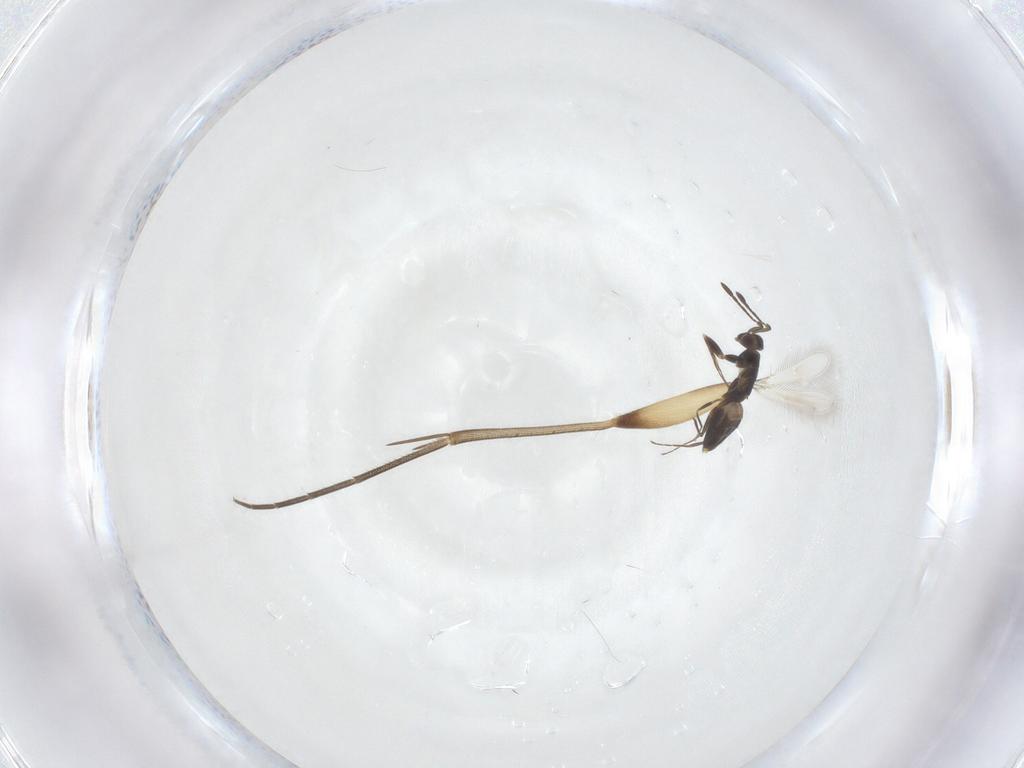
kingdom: Animalia
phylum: Arthropoda
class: Insecta
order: Diptera
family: Mycetophilidae
